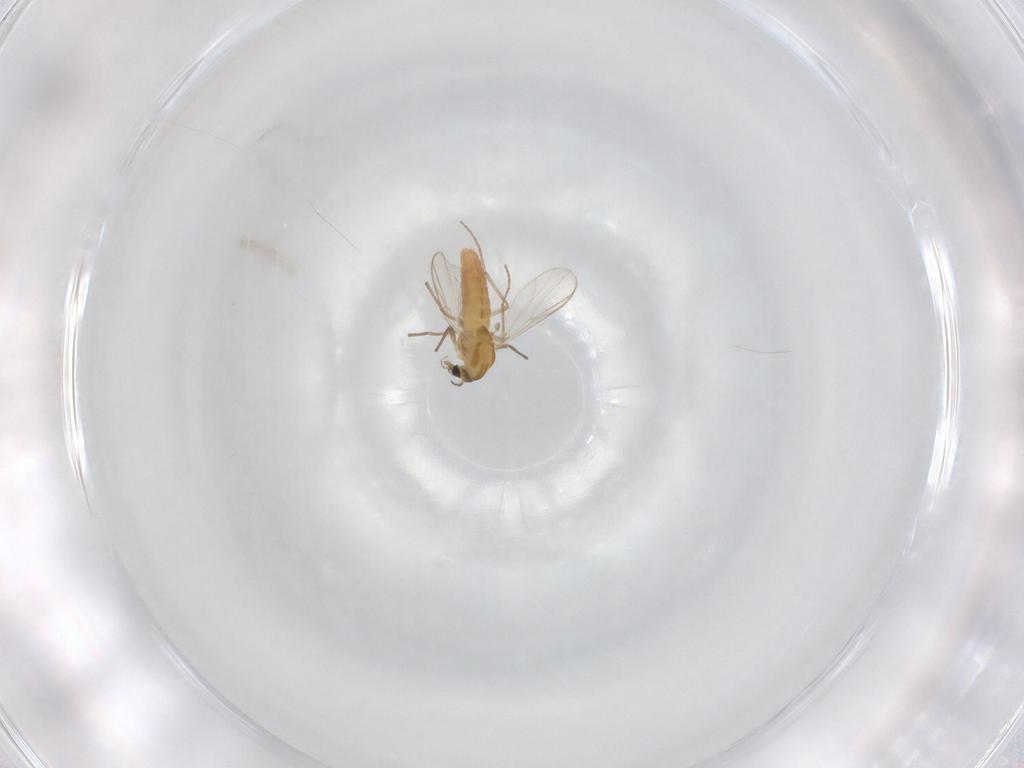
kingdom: Animalia
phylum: Arthropoda
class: Insecta
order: Diptera
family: Chironomidae
